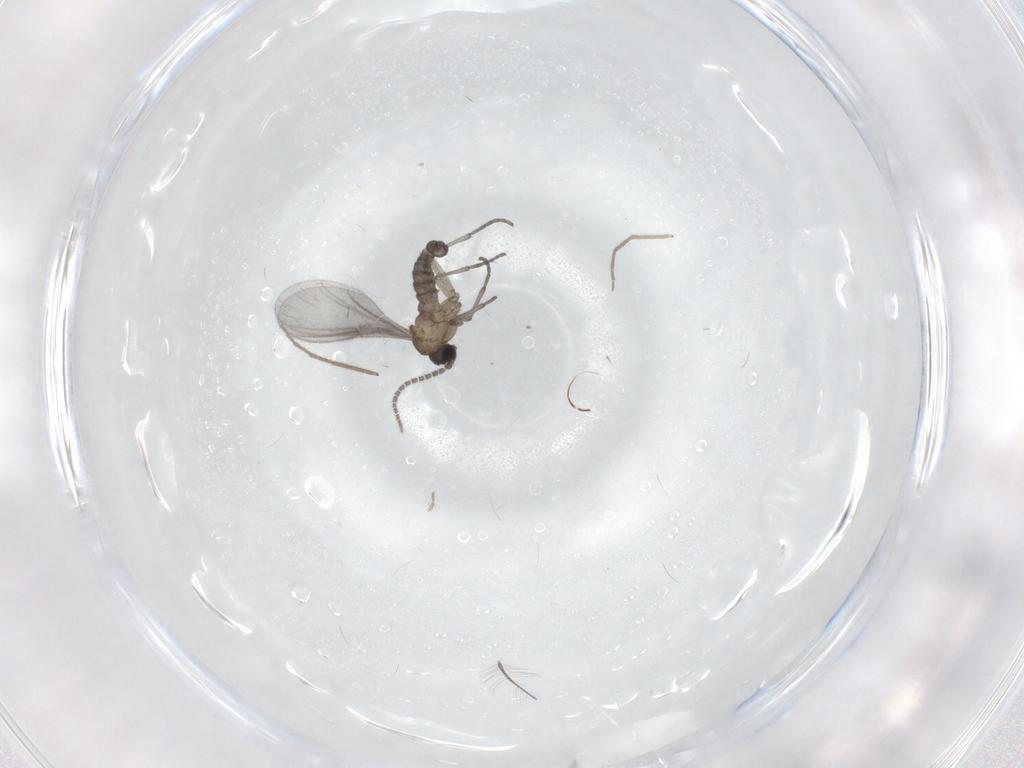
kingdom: Animalia
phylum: Arthropoda
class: Insecta
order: Diptera
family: Sciaridae
